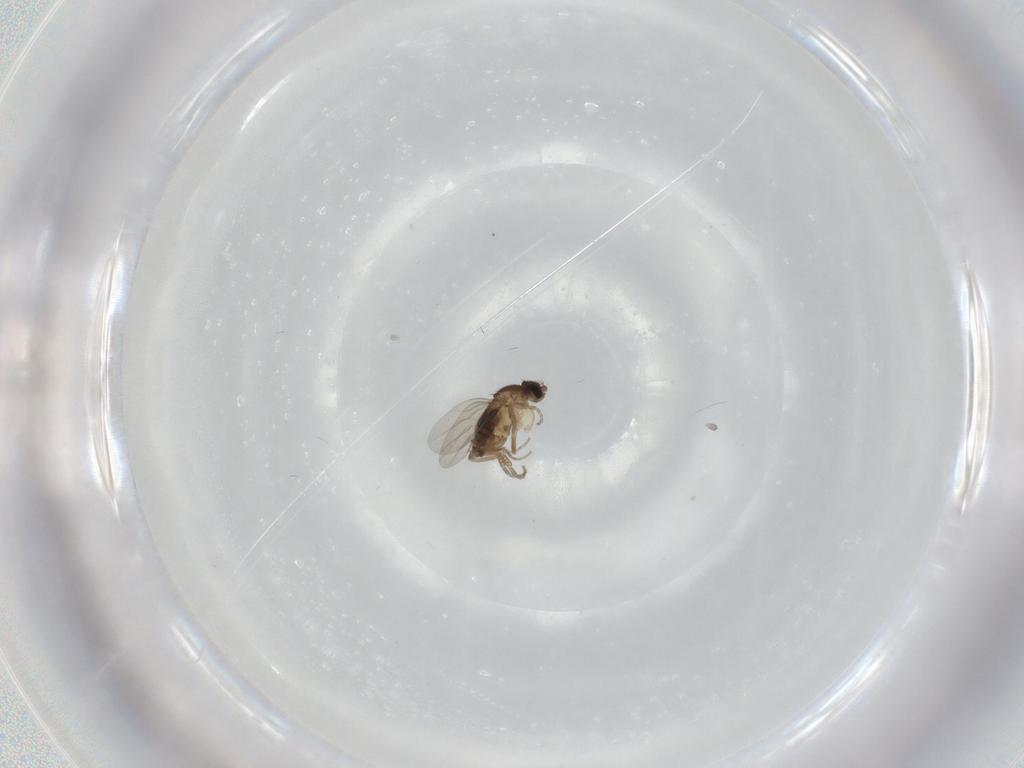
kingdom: Animalia
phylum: Arthropoda
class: Insecta
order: Diptera
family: Phoridae
